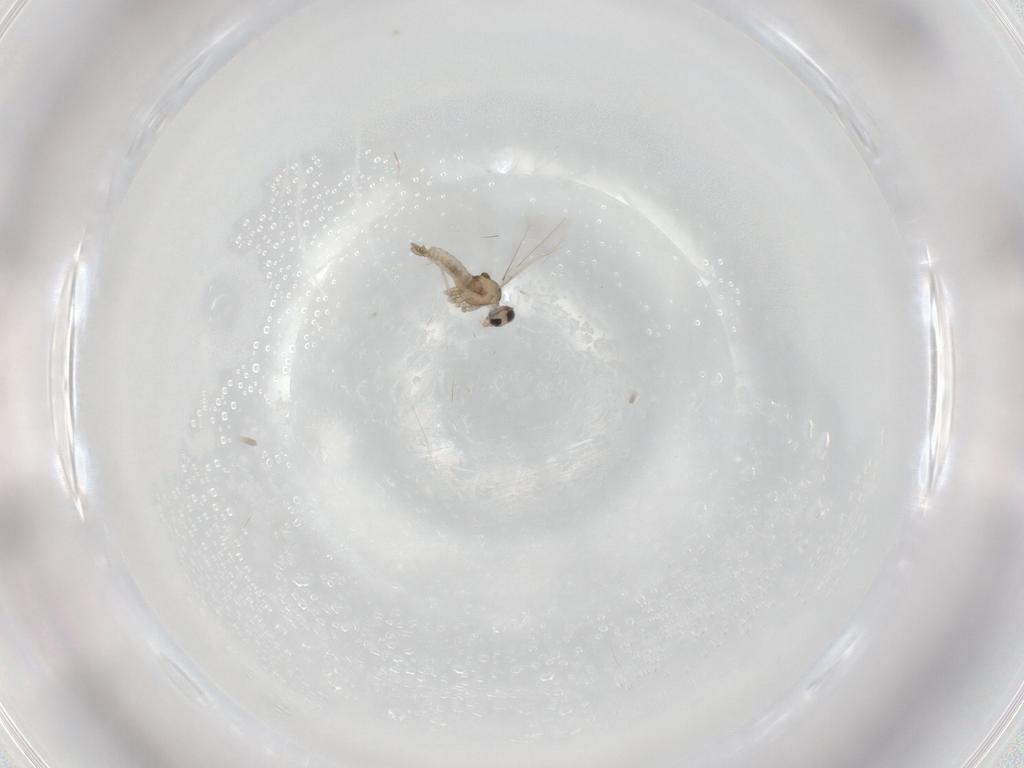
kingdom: Animalia
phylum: Arthropoda
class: Insecta
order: Diptera
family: Cecidomyiidae
